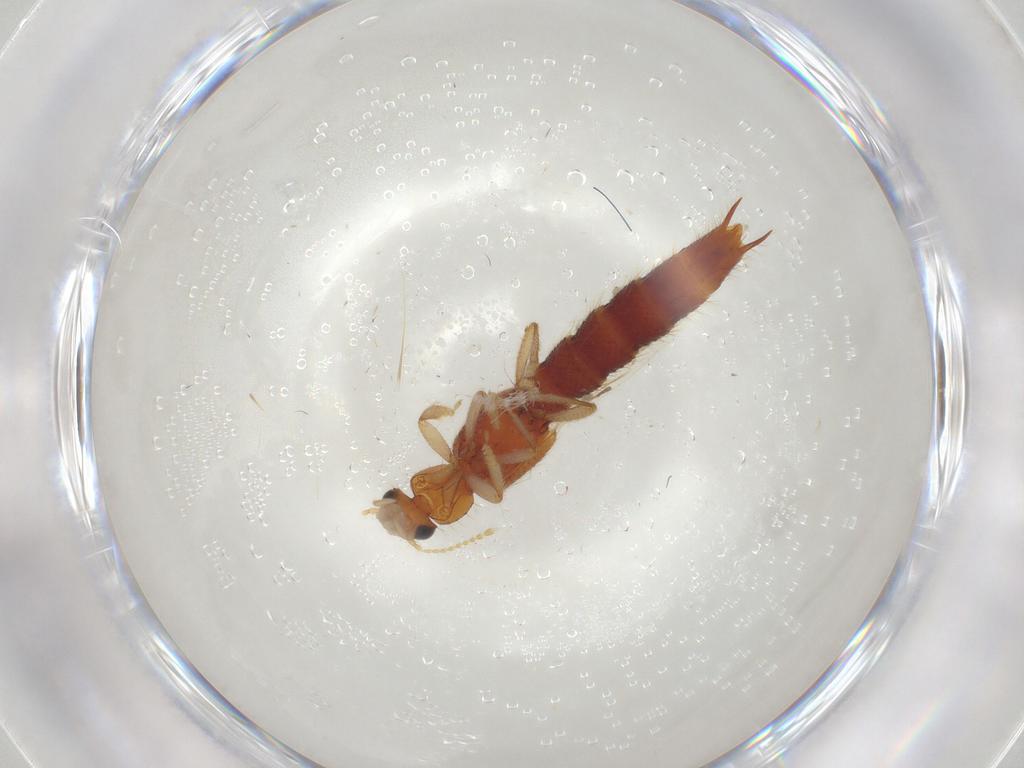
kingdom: Animalia
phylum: Arthropoda
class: Insecta
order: Coleoptera
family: Staphylinidae
